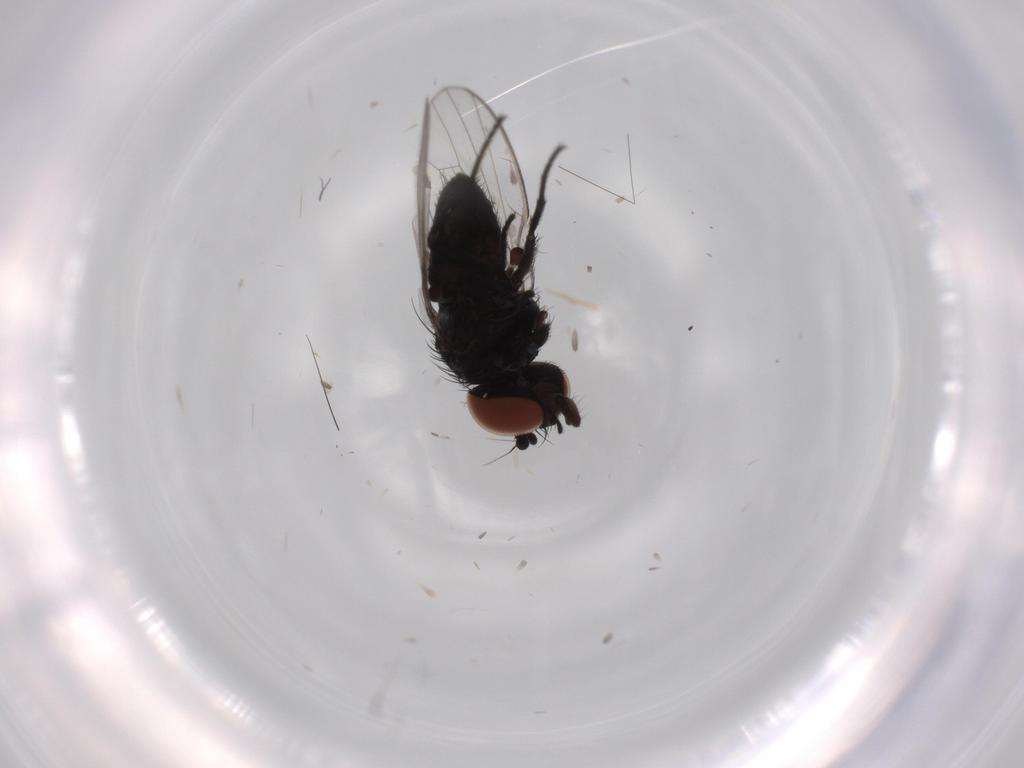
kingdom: Animalia
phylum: Arthropoda
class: Insecta
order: Diptera
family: Milichiidae
